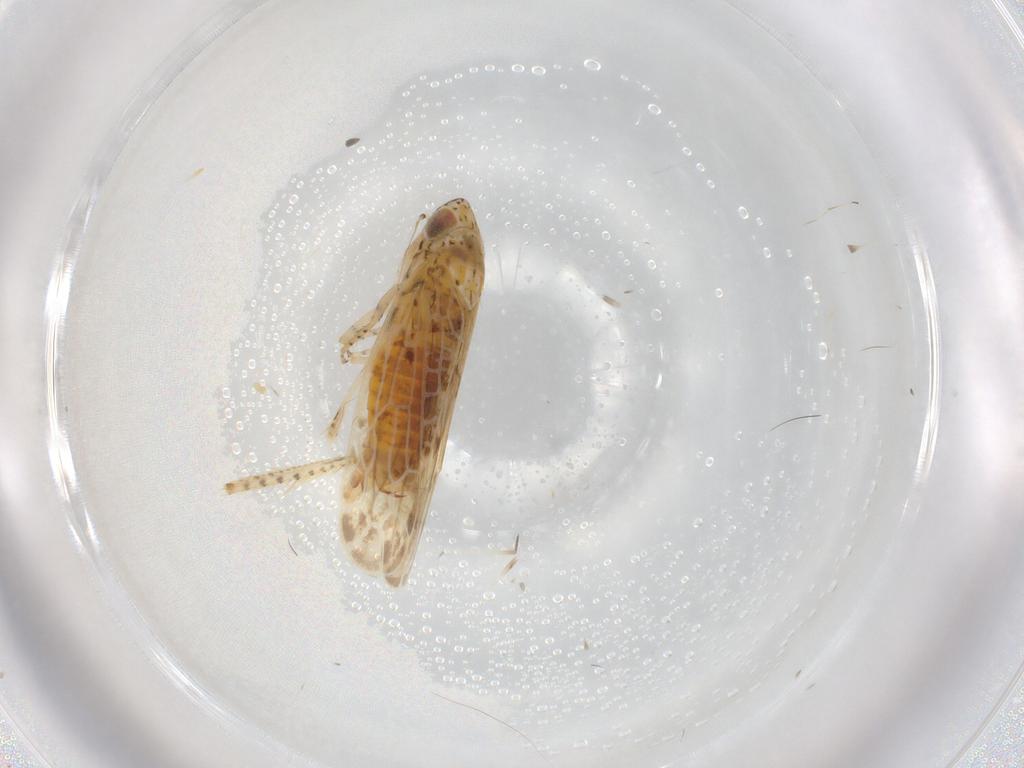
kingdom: Animalia
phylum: Arthropoda
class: Insecta
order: Hemiptera
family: Cicadellidae
